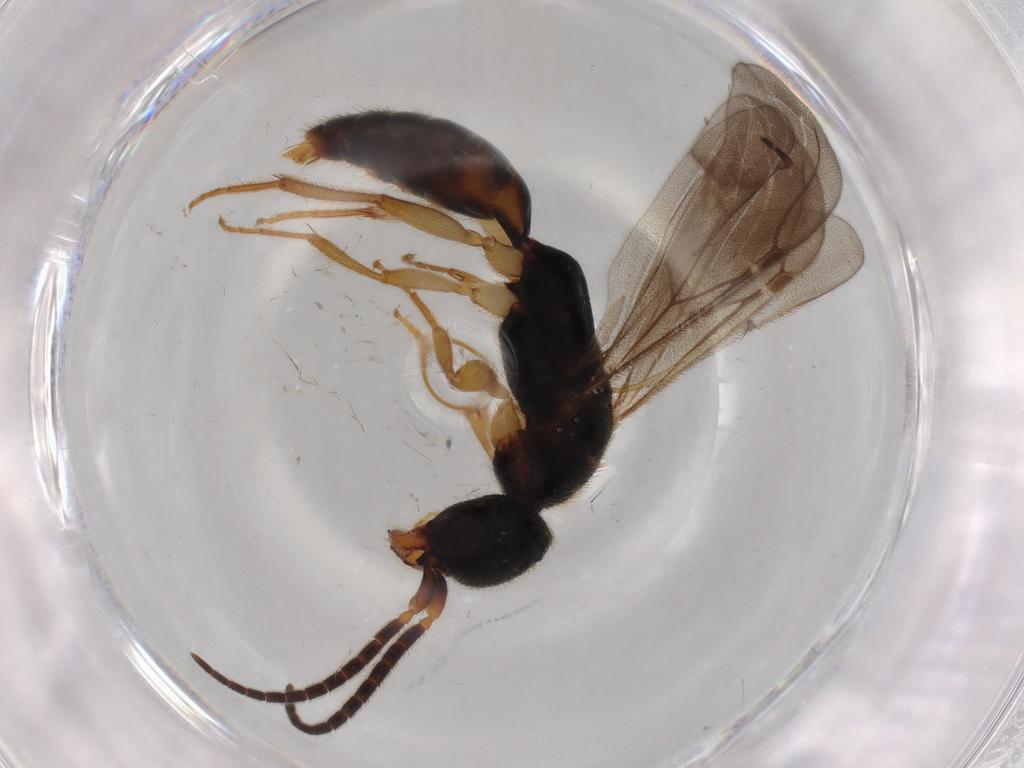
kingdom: Animalia
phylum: Arthropoda
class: Insecta
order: Hymenoptera
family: Bethylidae
